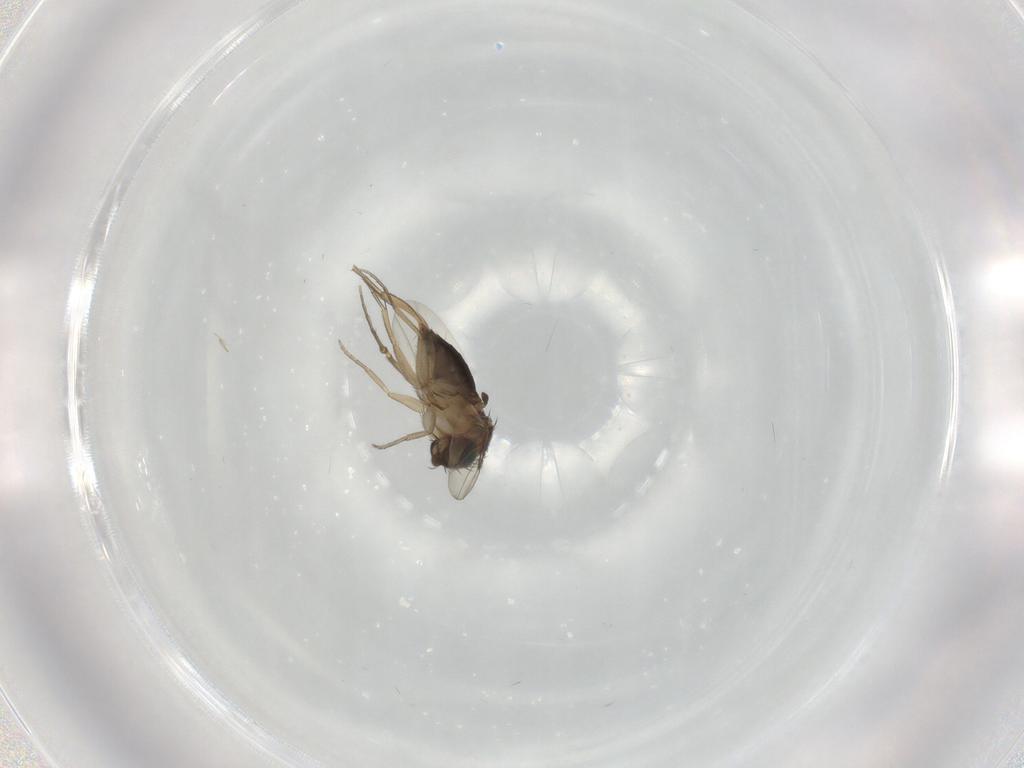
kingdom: Animalia
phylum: Arthropoda
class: Insecta
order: Diptera
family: Phoridae
